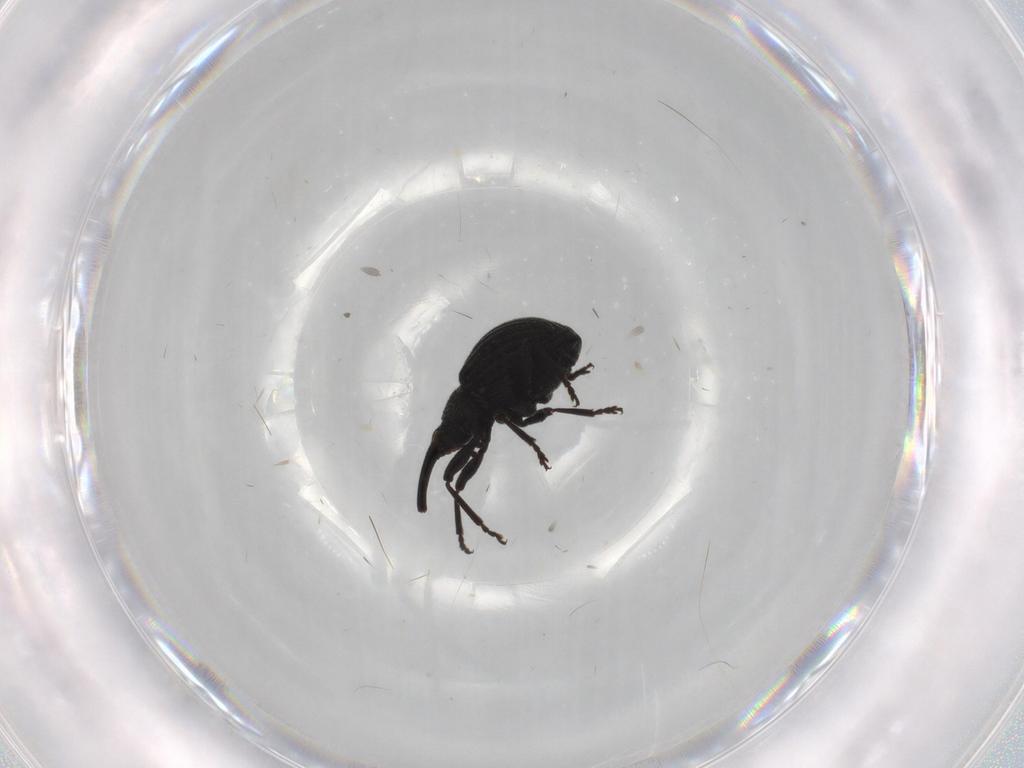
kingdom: Animalia
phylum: Arthropoda
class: Insecta
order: Coleoptera
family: Brentidae
